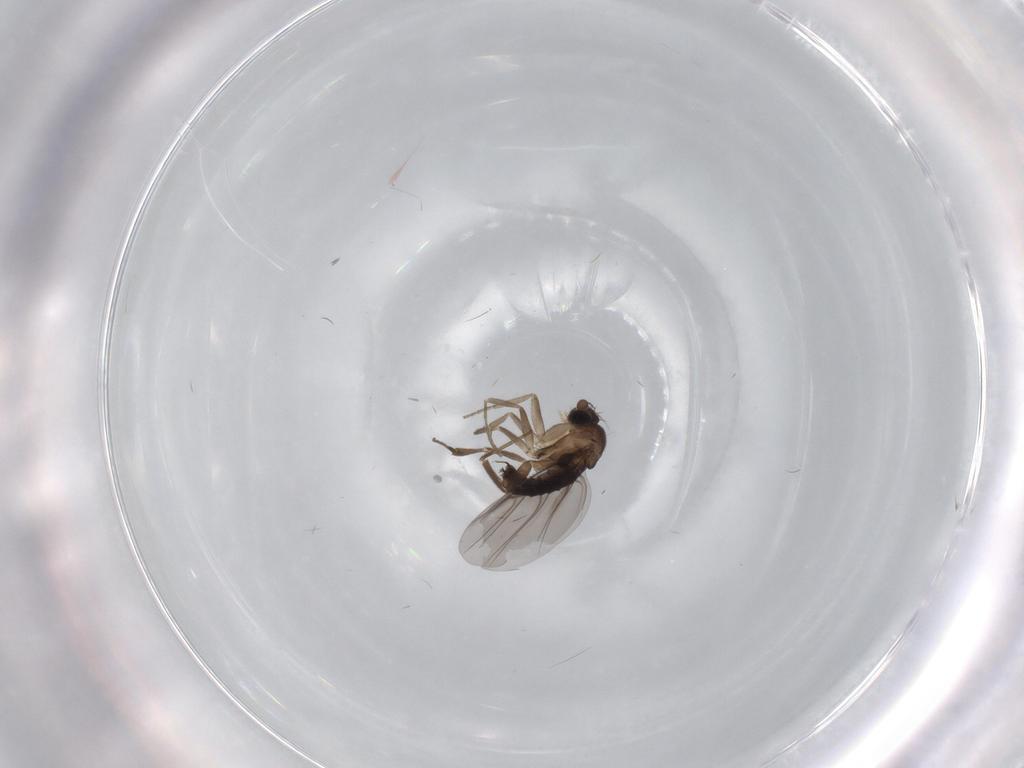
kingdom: Animalia
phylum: Arthropoda
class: Insecta
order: Diptera
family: Phoridae
